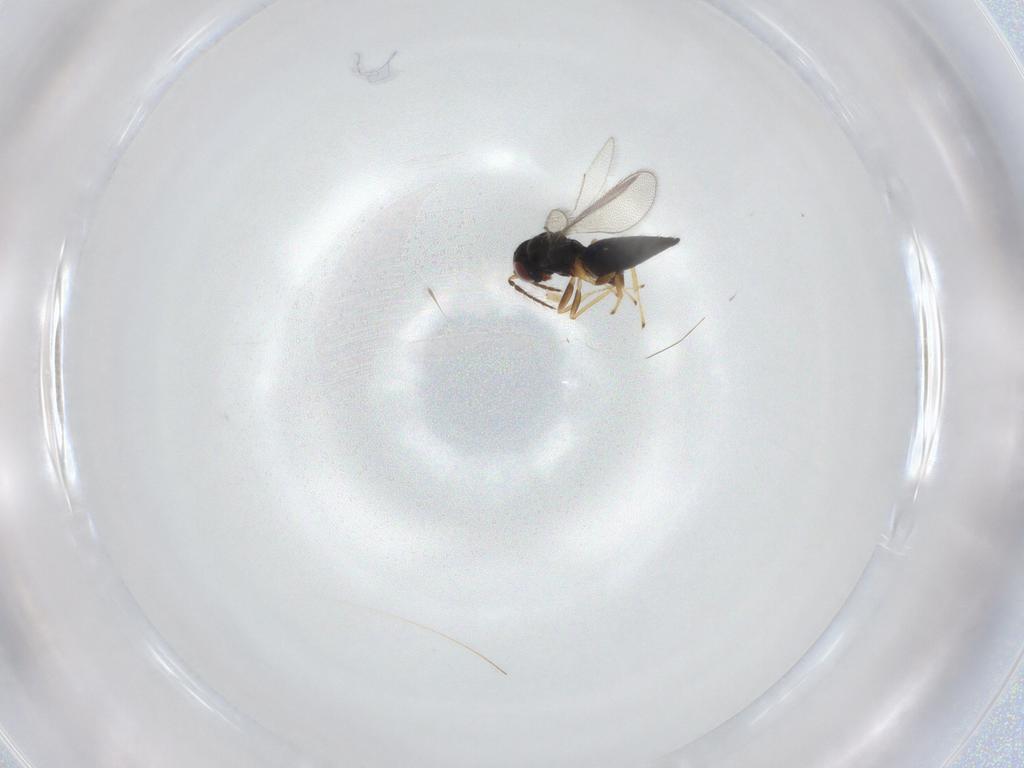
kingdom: Animalia
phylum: Arthropoda
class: Insecta
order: Hymenoptera
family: Eulophidae
